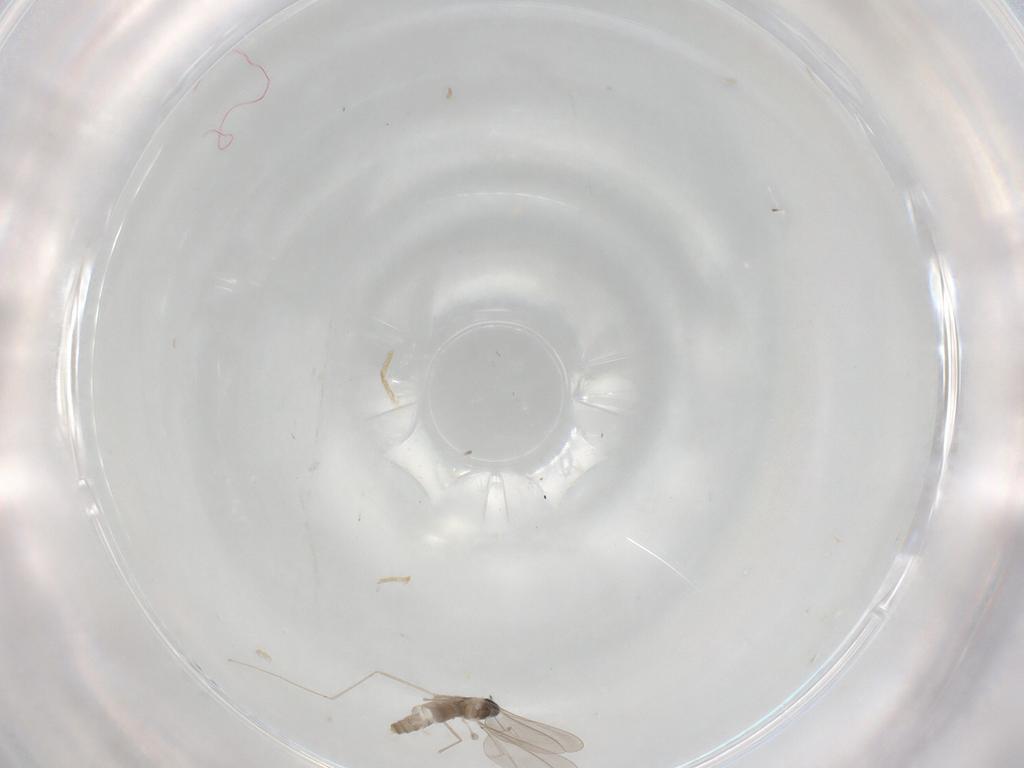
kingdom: Animalia
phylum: Arthropoda
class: Insecta
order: Diptera
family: Cecidomyiidae
